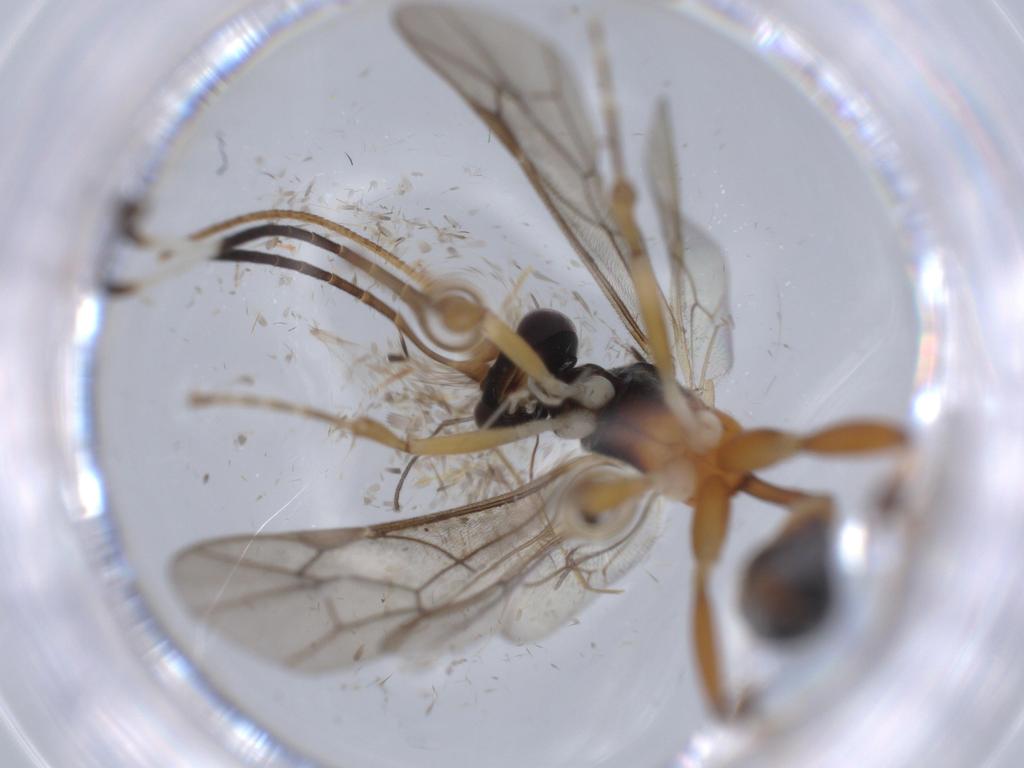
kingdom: Animalia
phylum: Arthropoda
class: Insecta
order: Hymenoptera
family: Formicidae
